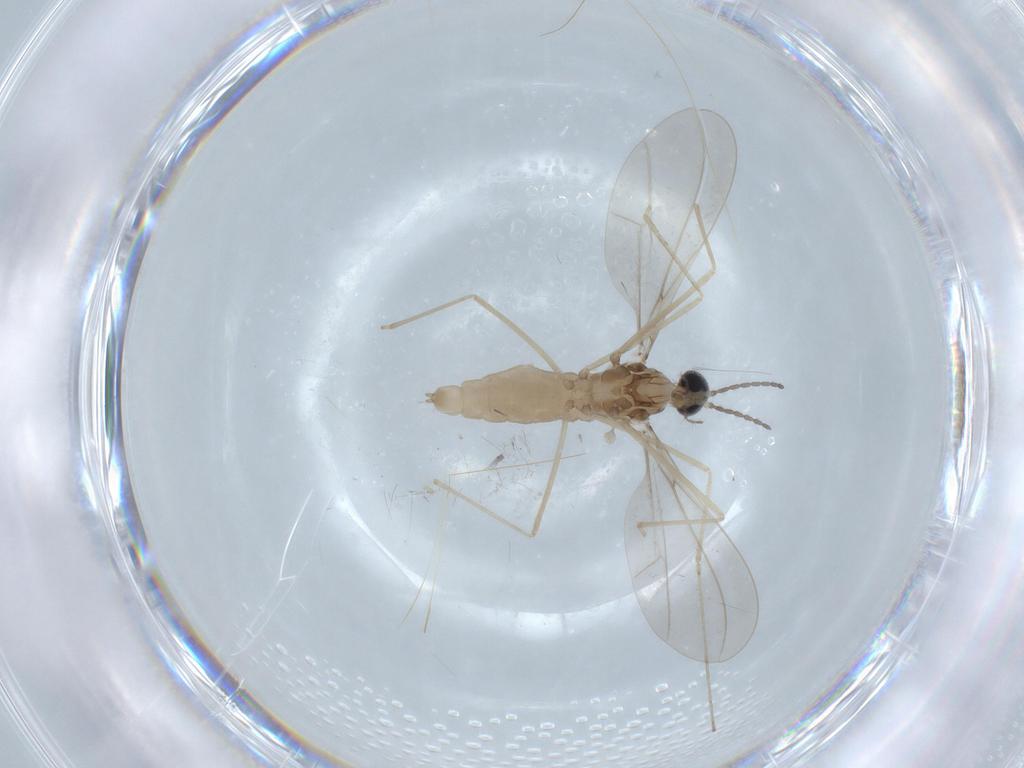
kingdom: Animalia
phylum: Arthropoda
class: Insecta
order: Diptera
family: Cecidomyiidae
